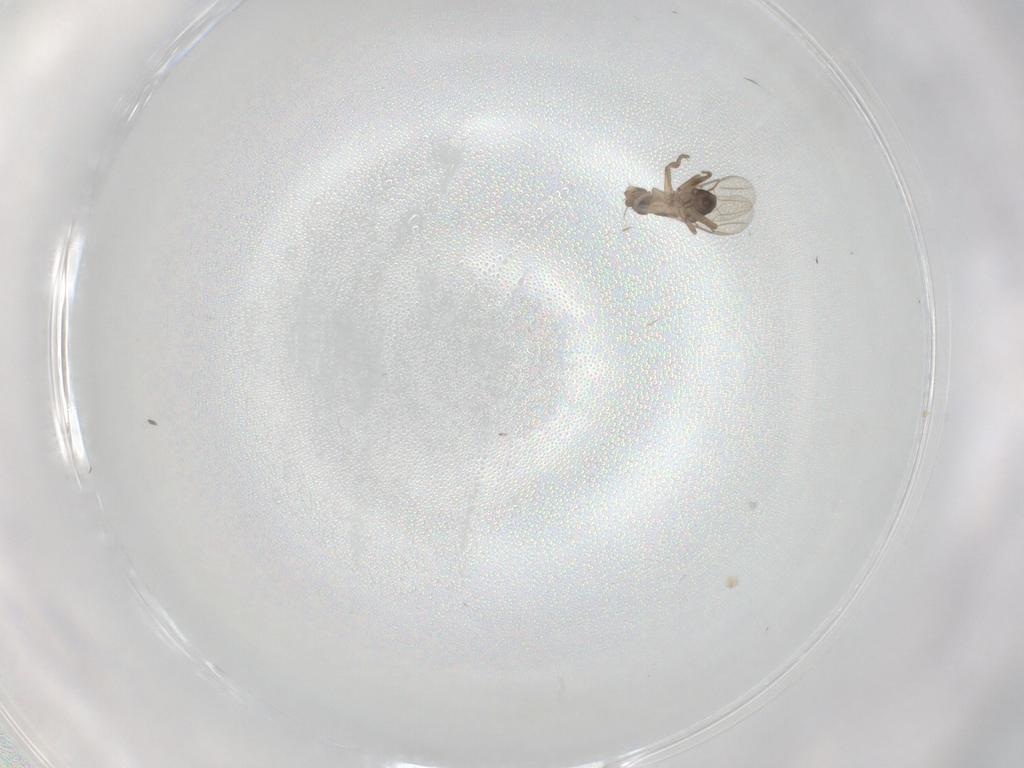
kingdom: Animalia
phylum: Arthropoda
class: Insecta
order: Diptera
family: Phoridae
